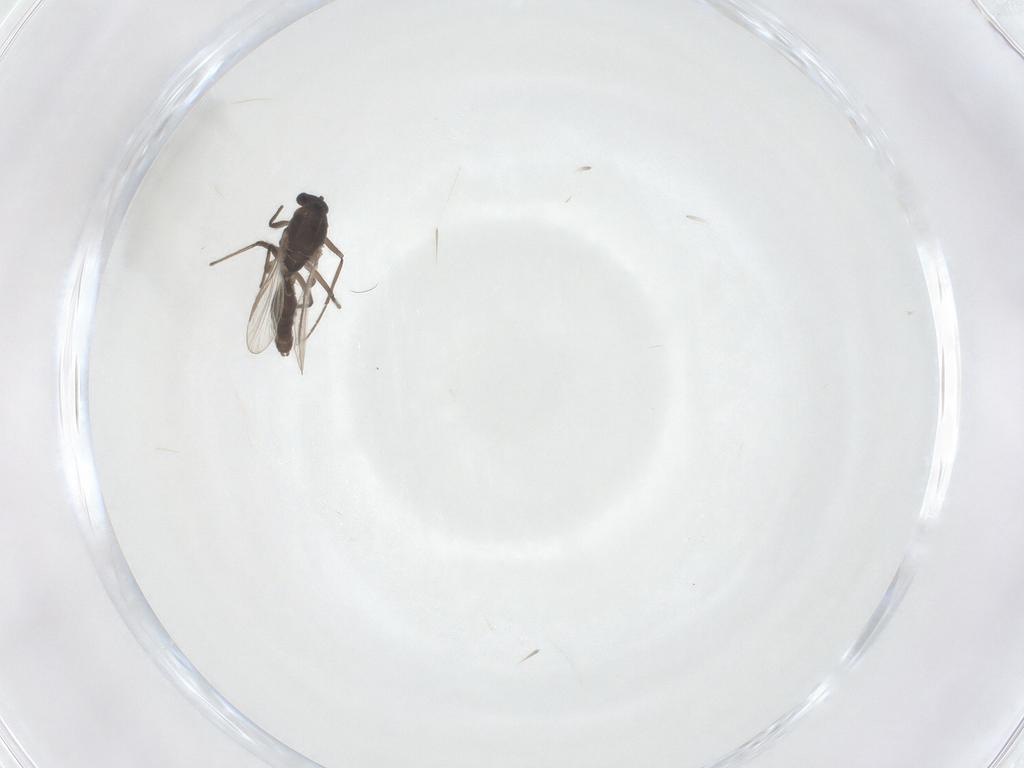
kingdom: Animalia
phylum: Arthropoda
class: Insecta
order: Diptera
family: Chironomidae
